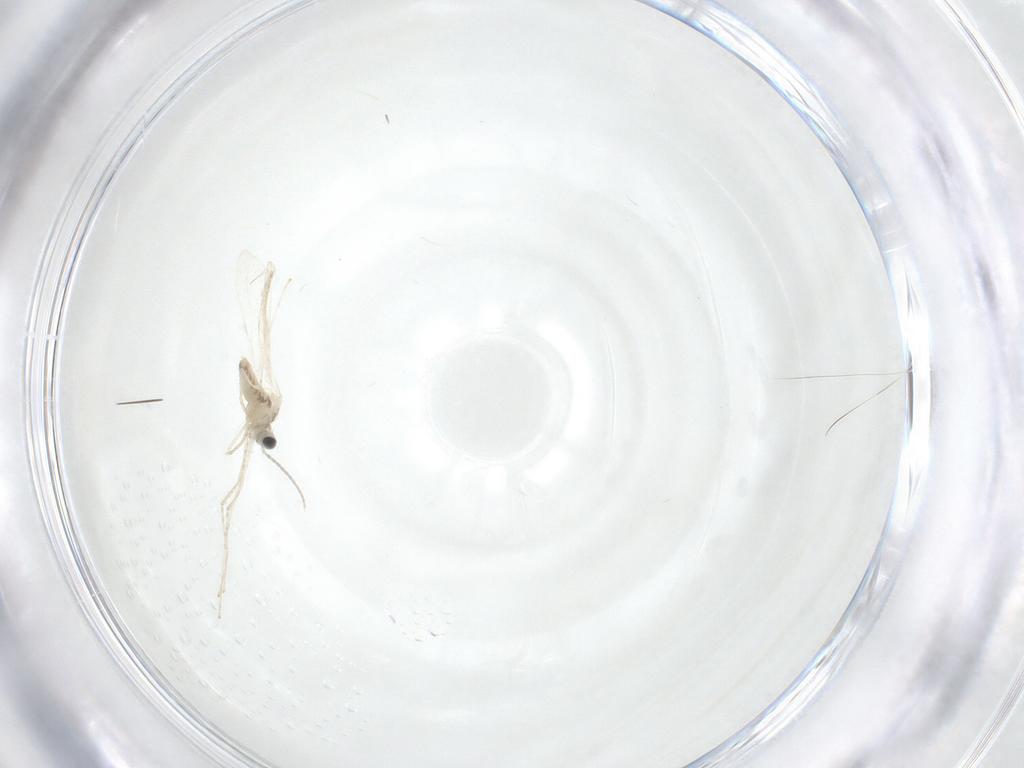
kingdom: Animalia
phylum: Arthropoda
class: Insecta
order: Diptera
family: Cecidomyiidae
